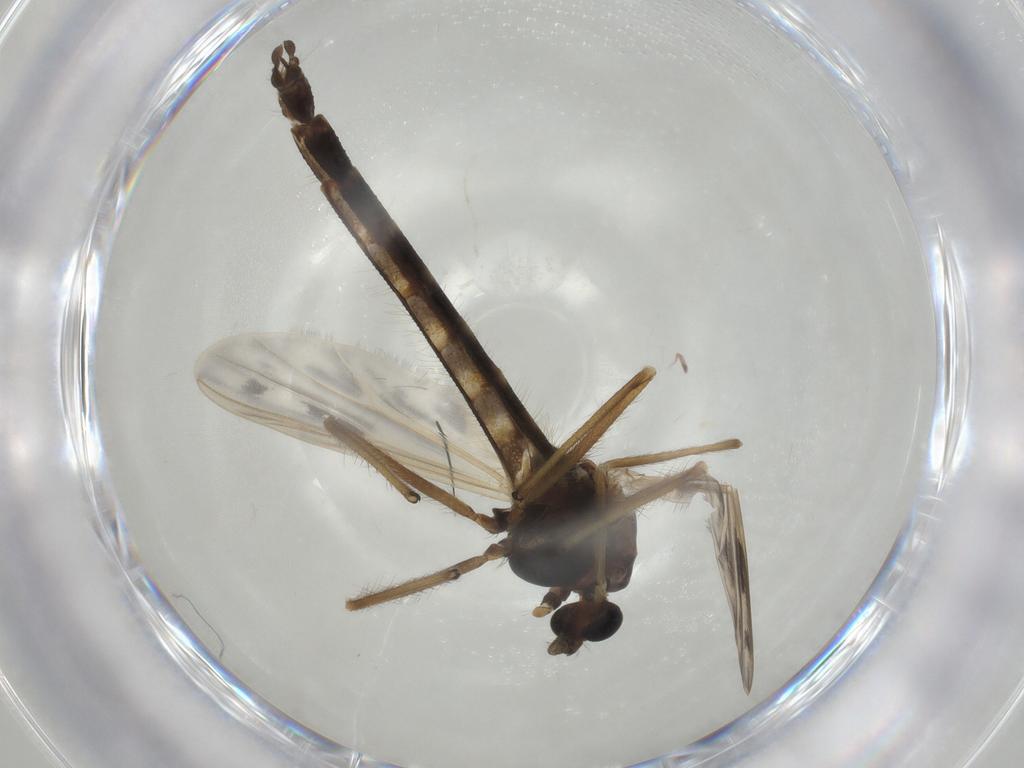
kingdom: Animalia
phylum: Arthropoda
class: Insecta
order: Diptera
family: Chironomidae
